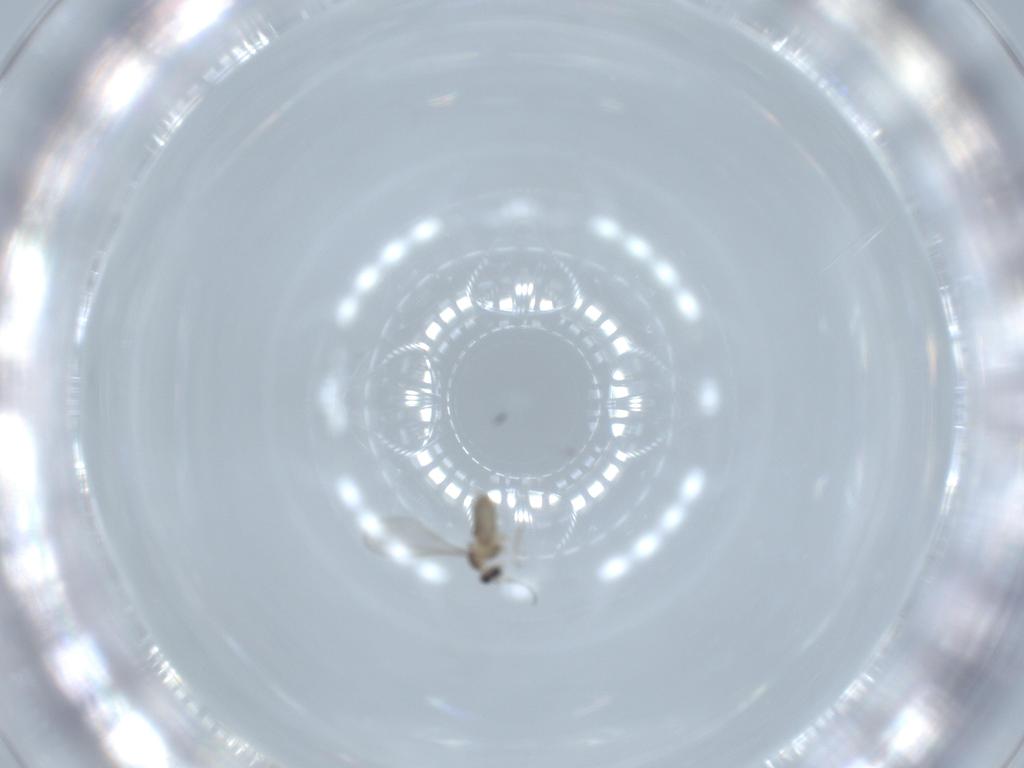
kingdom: Animalia
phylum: Arthropoda
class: Insecta
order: Diptera
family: Cecidomyiidae
